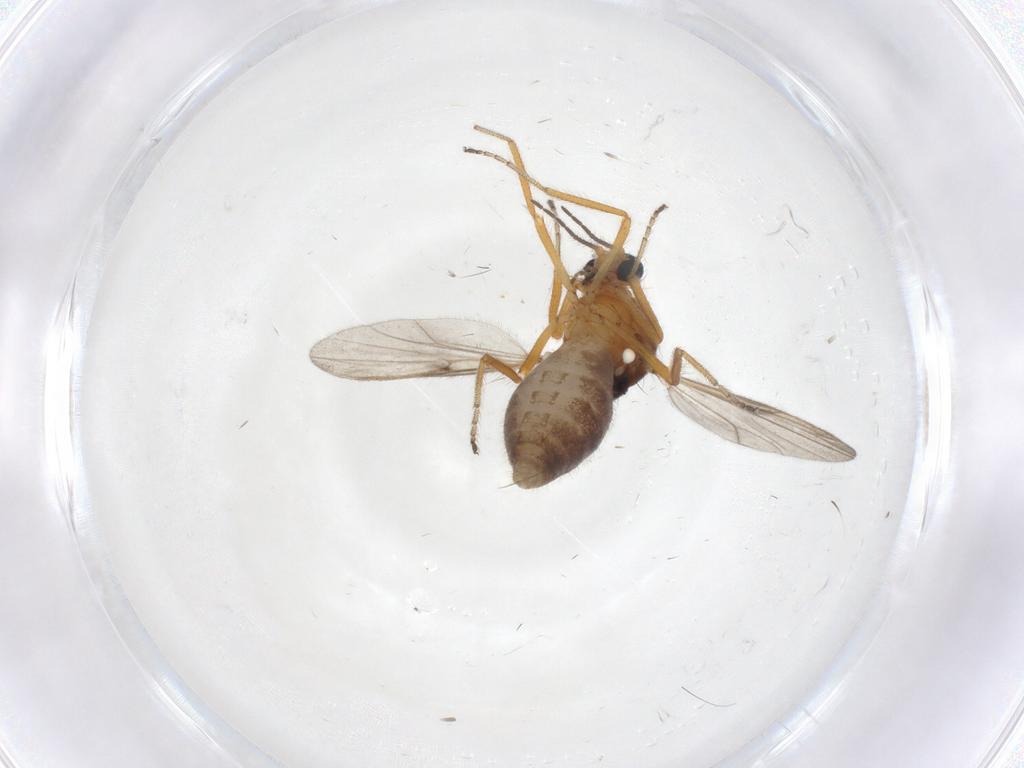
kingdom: Animalia
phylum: Arthropoda
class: Insecta
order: Diptera
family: Ceratopogonidae
